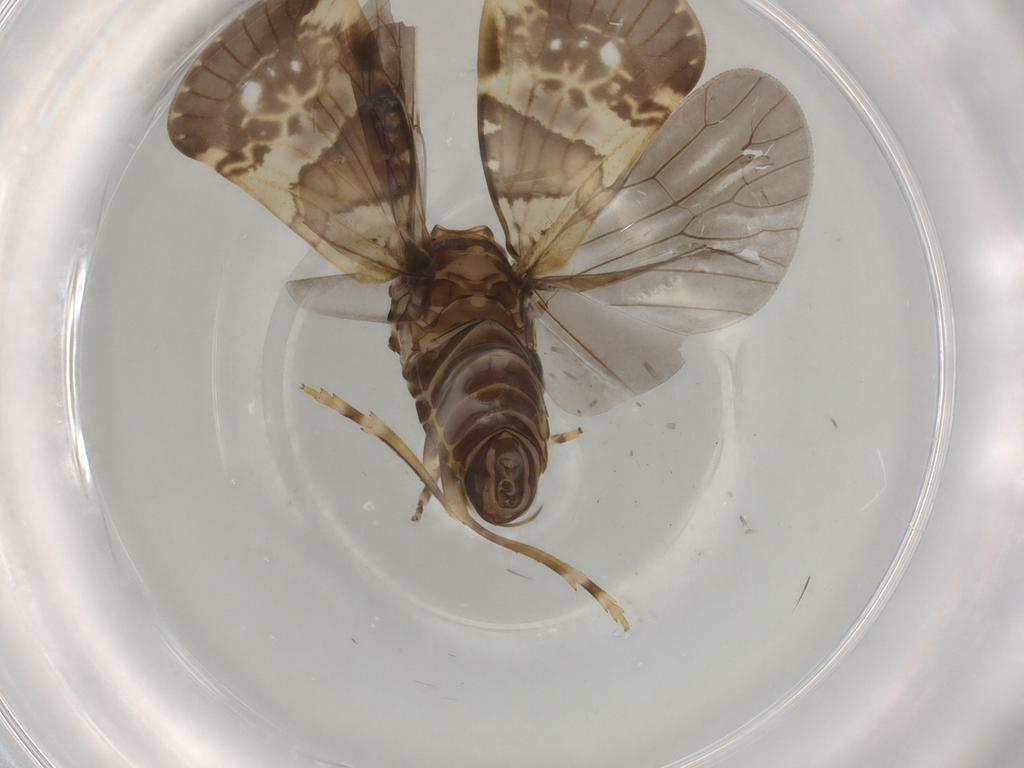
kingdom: Animalia
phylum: Arthropoda
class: Insecta
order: Hemiptera
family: Cixiidae
